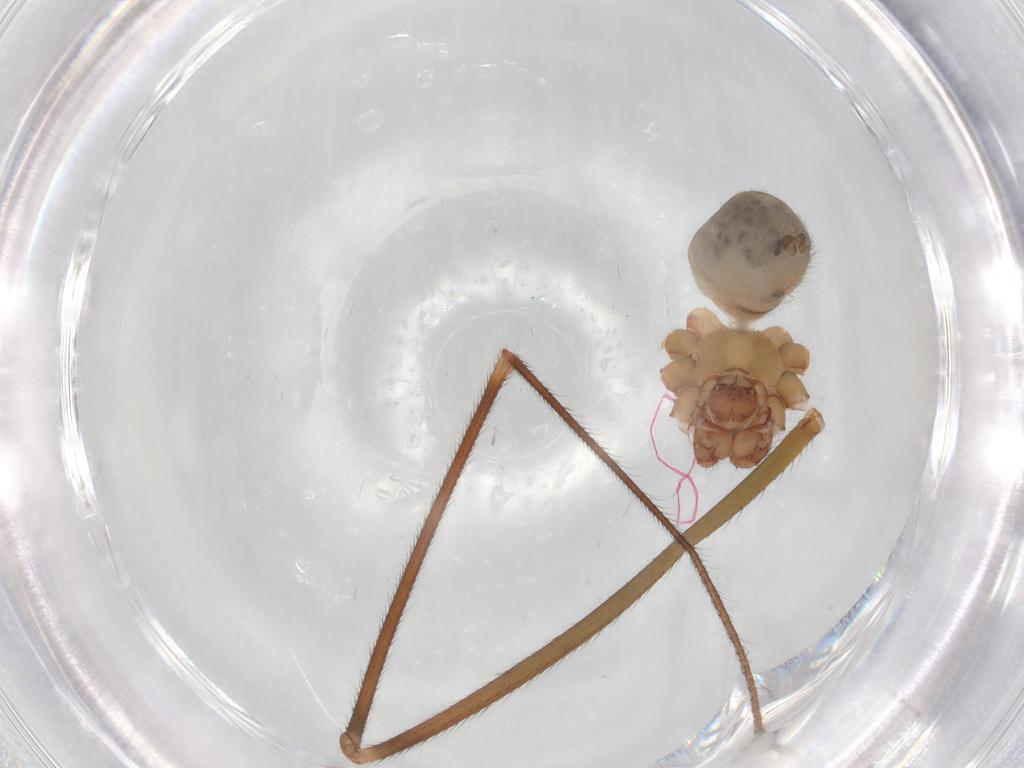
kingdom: Animalia
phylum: Arthropoda
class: Arachnida
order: Araneae
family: Pholcidae
